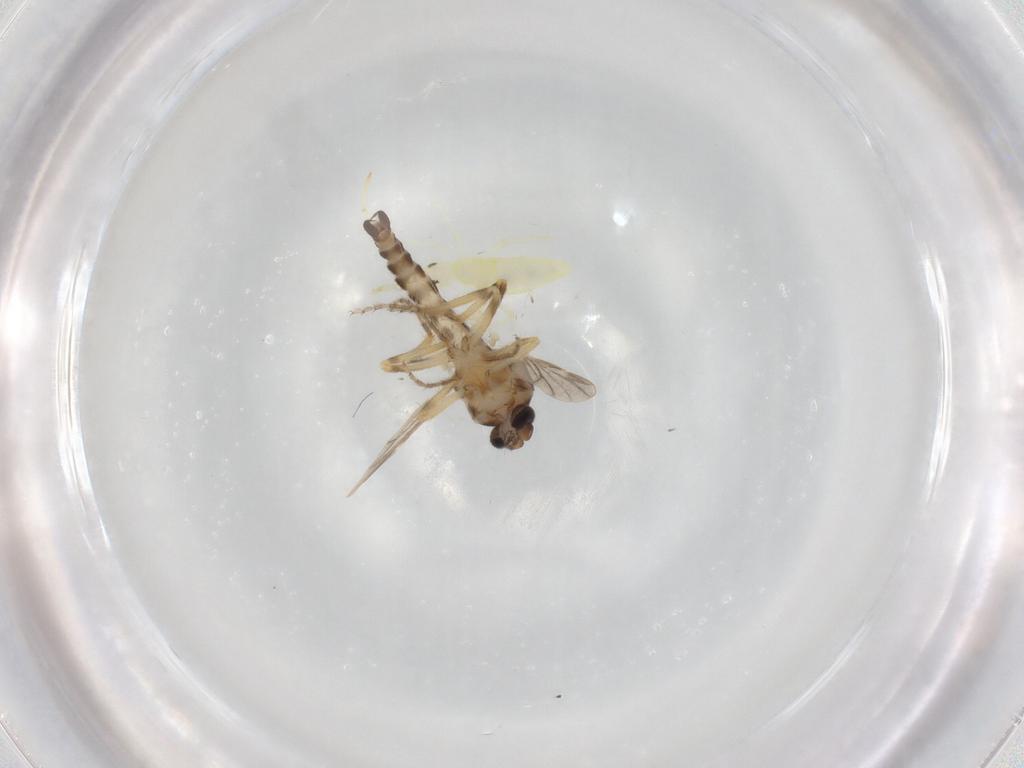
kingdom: Animalia
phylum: Arthropoda
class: Insecta
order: Diptera
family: Ceratopogonidae
